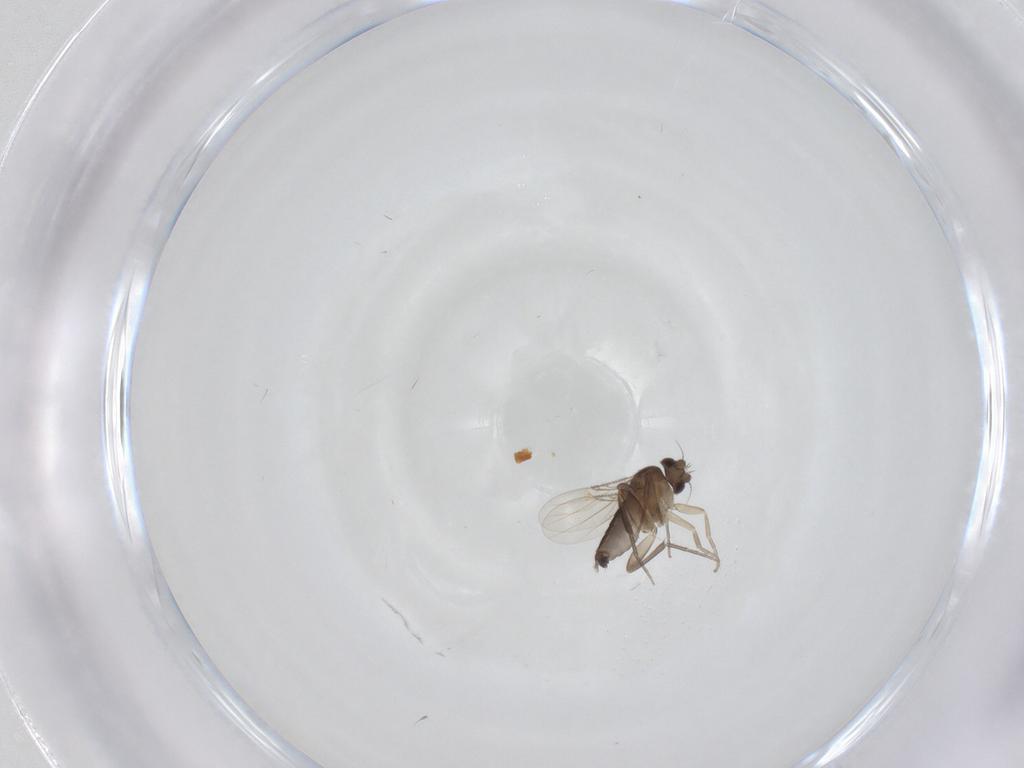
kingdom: Animalia
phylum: Arthropoda
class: Insecta
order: Diptera
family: Phoridae
